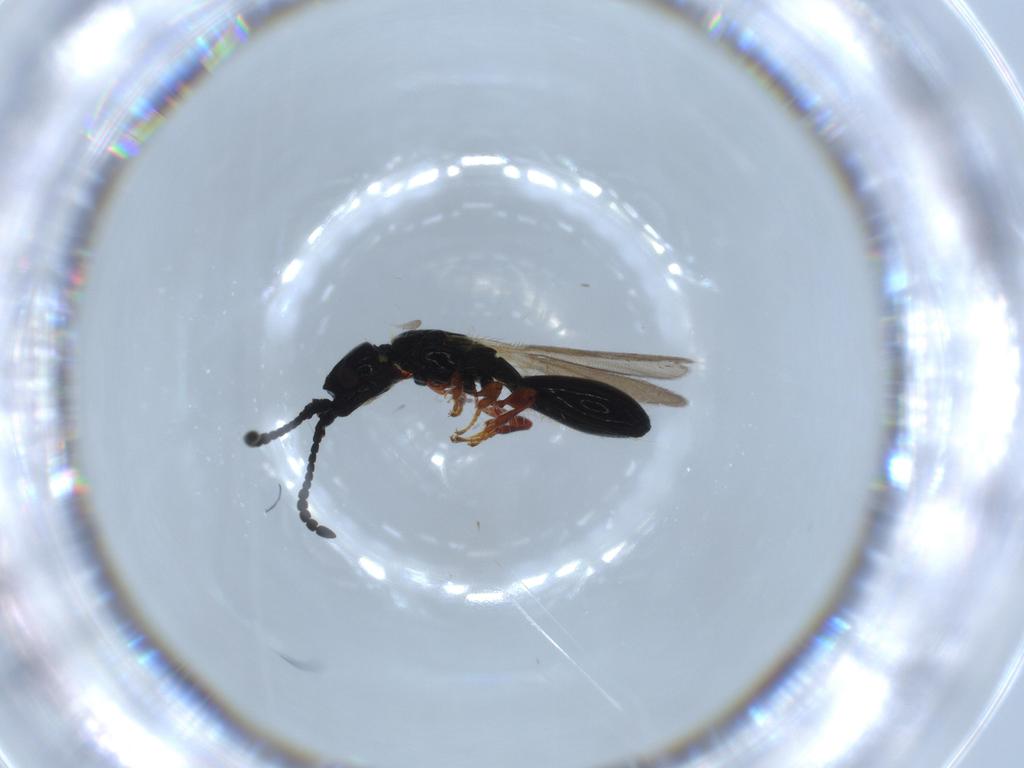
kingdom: Animalia
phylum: Arthropoda
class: Insecta
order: Hymenoptera
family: Diapriidae
